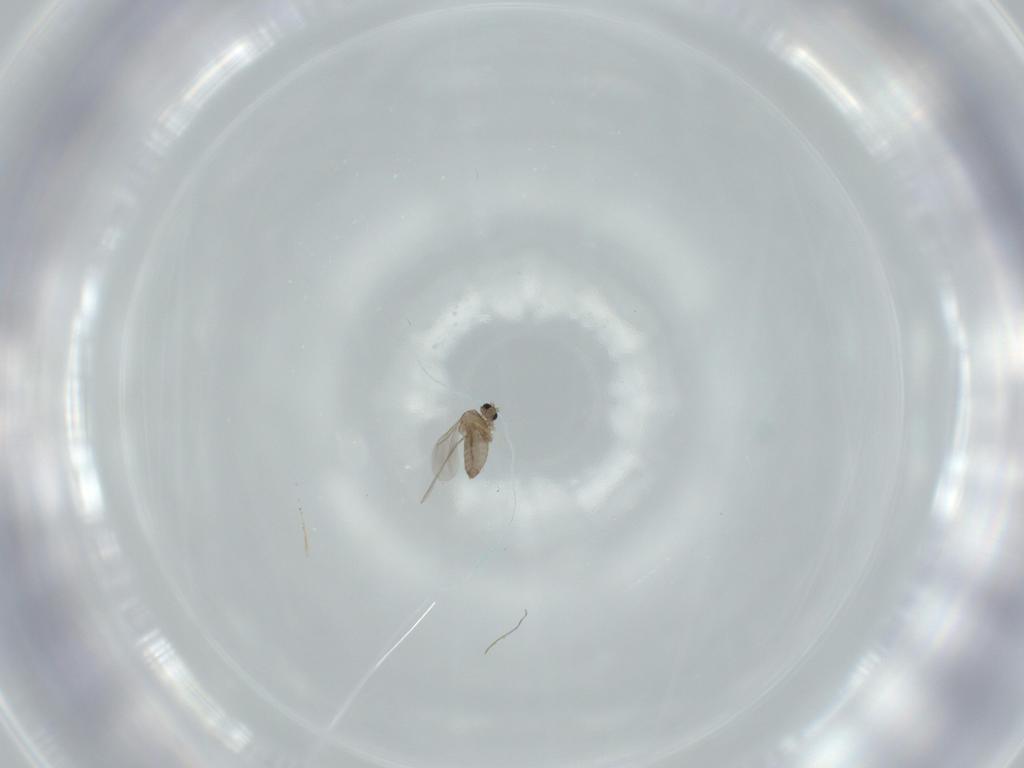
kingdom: Animalia
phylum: Arthropoda
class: Insecta
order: Diptera
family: Cecidomyiidae
